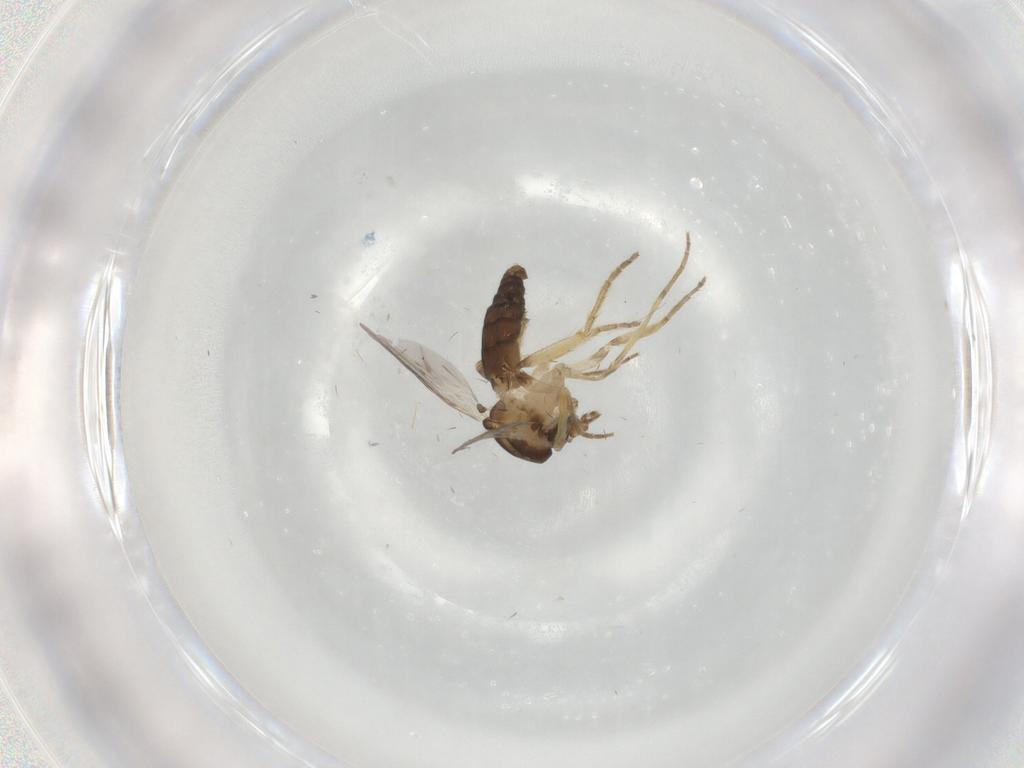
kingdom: Animalia
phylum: Arthropoda
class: Insecta
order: Diptera
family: Ceratopogonidae
